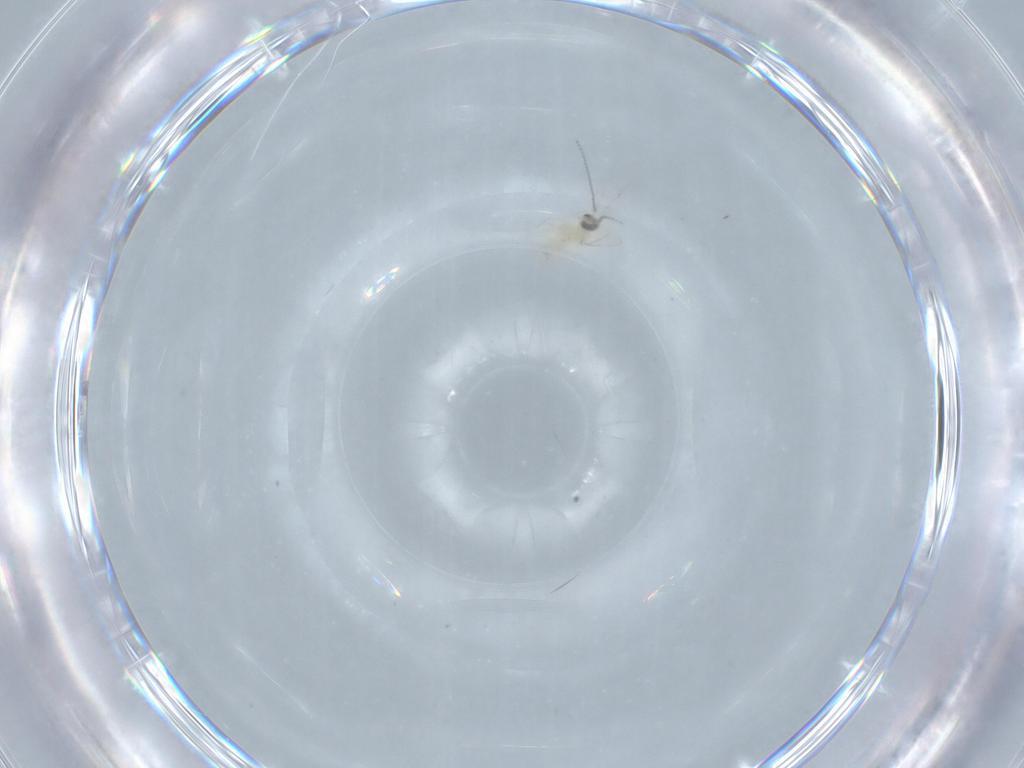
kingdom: Animalia
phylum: Arthropoda
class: Insecta
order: Diptera
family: Cecidomyiidae
